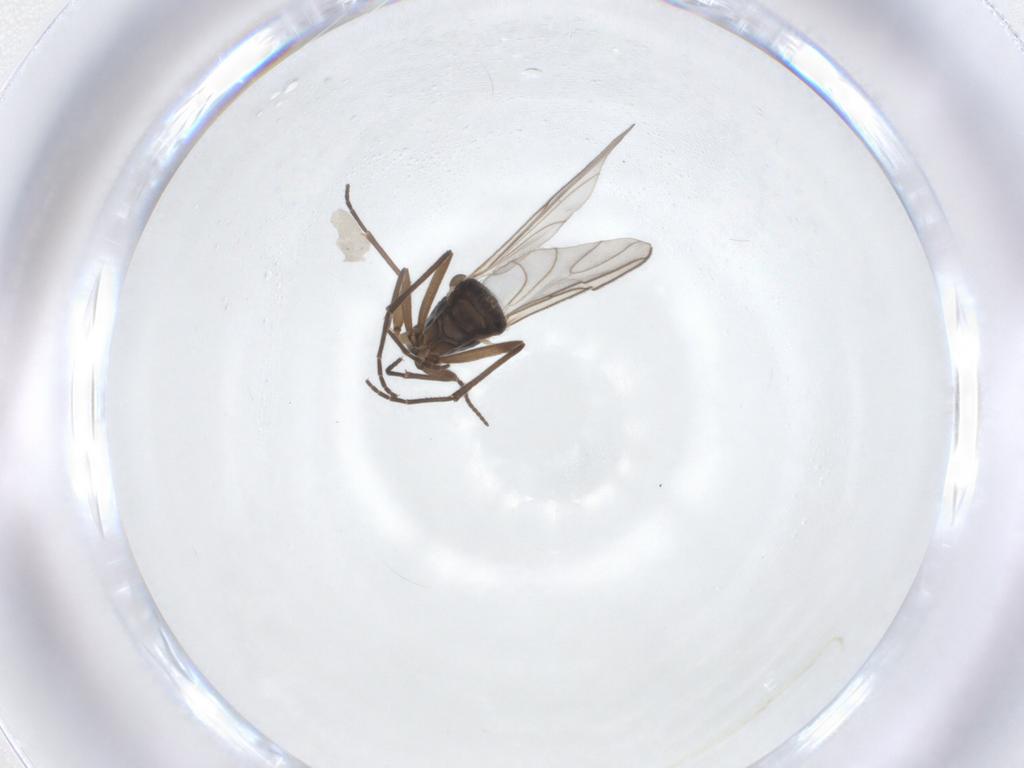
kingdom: Animalia
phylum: Arthropoda
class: Insecta
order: Diptera
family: Sciaridae
